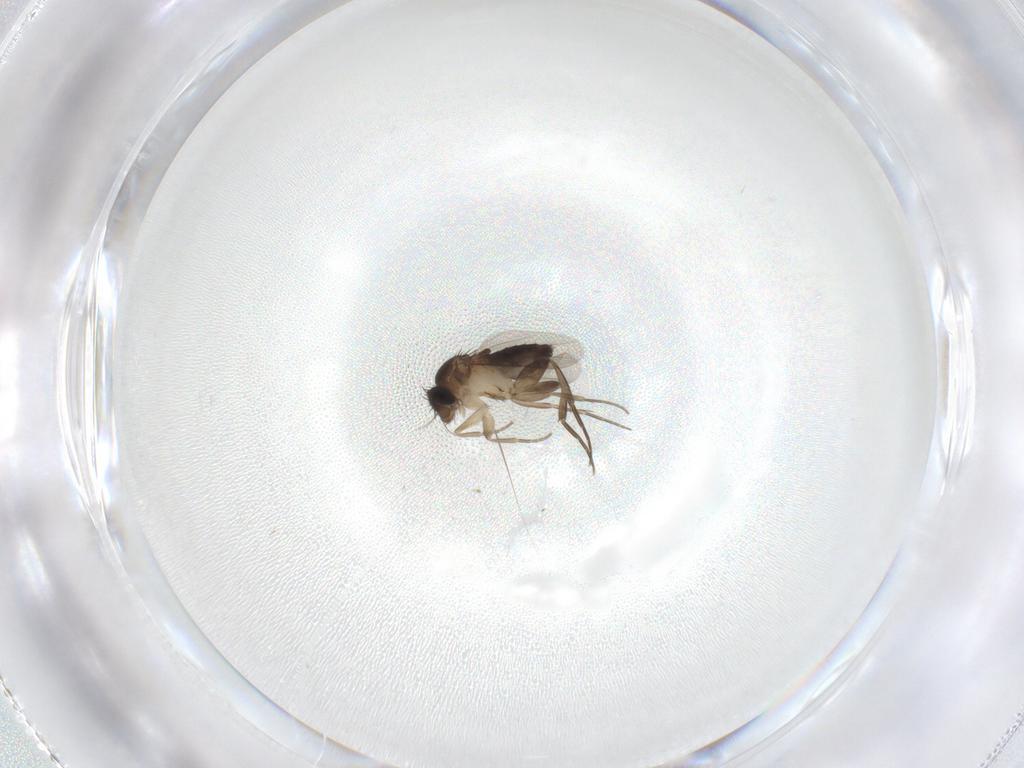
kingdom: Animalia
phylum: Arthropoda
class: Insecta
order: Diptera
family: Phoridae
